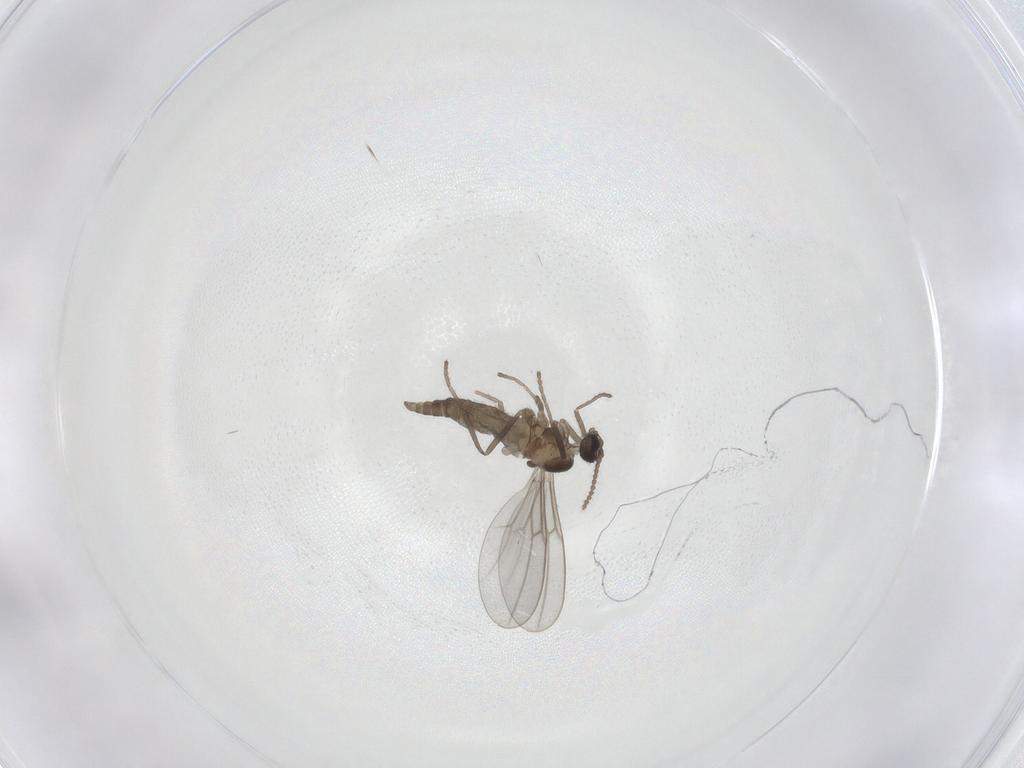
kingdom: Animalia
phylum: Arthropoda
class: Insecta
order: Diptera
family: Cecidomyiidae
